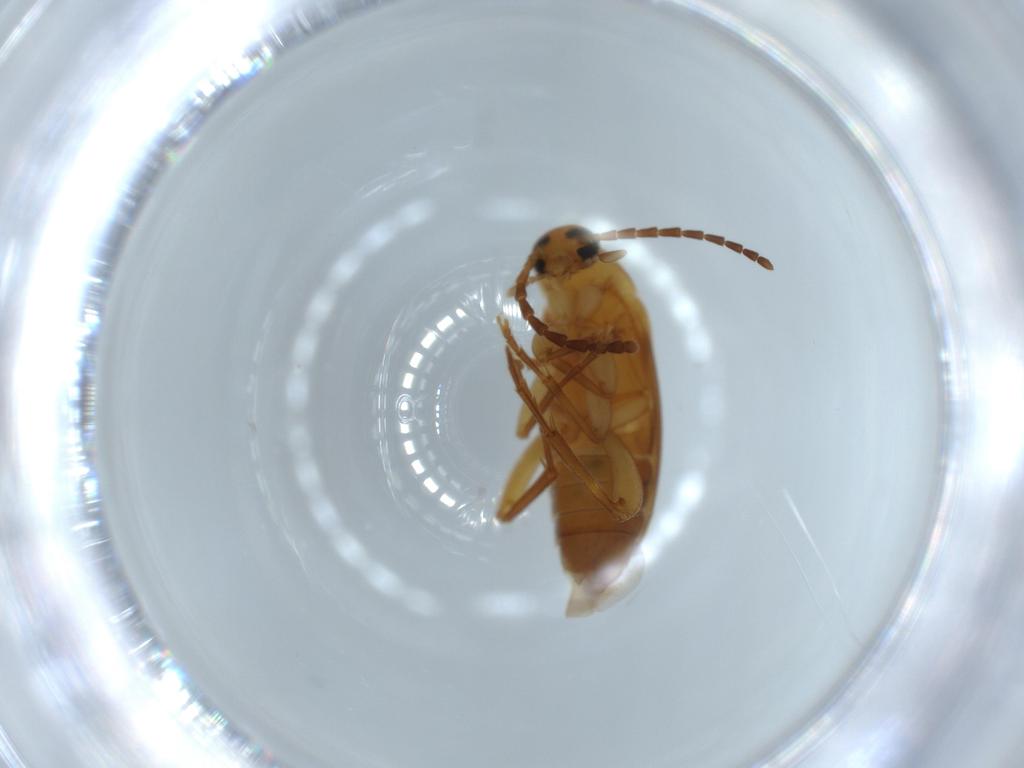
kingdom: Animalia
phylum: Arthropoda
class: Insecta
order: Coleoptera
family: Scraptiidae
